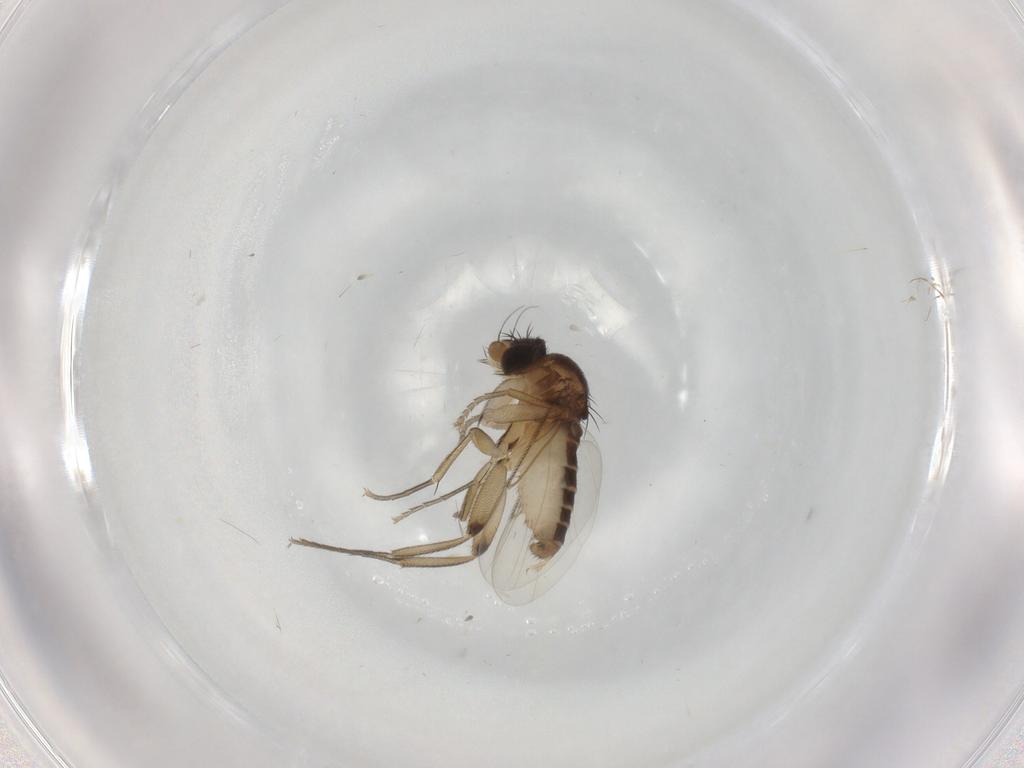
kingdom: Animalia
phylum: Arthropoda
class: Insecta
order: Diptera
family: Phoridae
